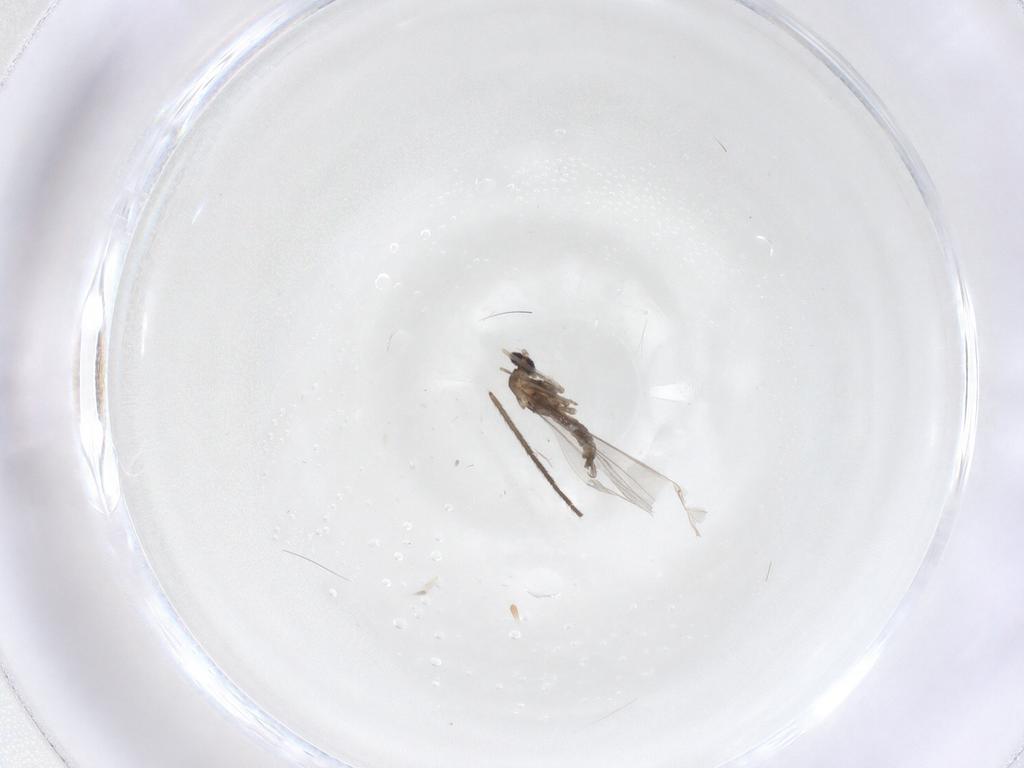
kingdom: Animalia
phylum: Arthropoda
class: Insecta
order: Diptera
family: Cecidomyiidae
